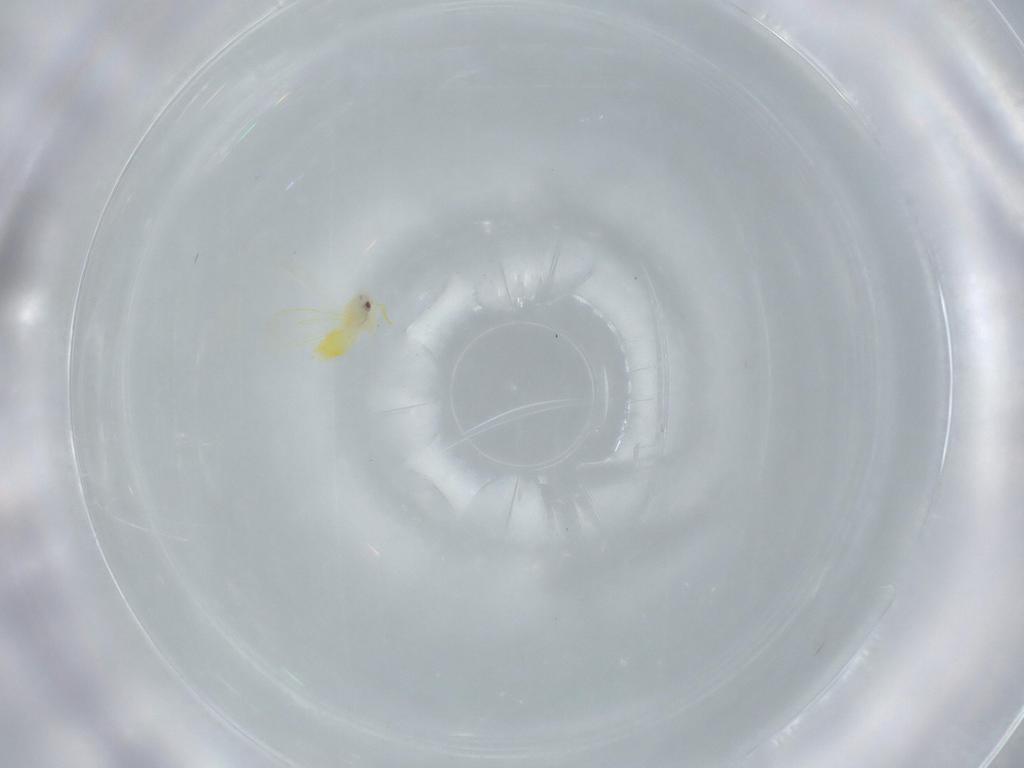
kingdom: Animalia
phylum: Arthropoda
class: Insecta
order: Hemiptera
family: Aleyrodidae
